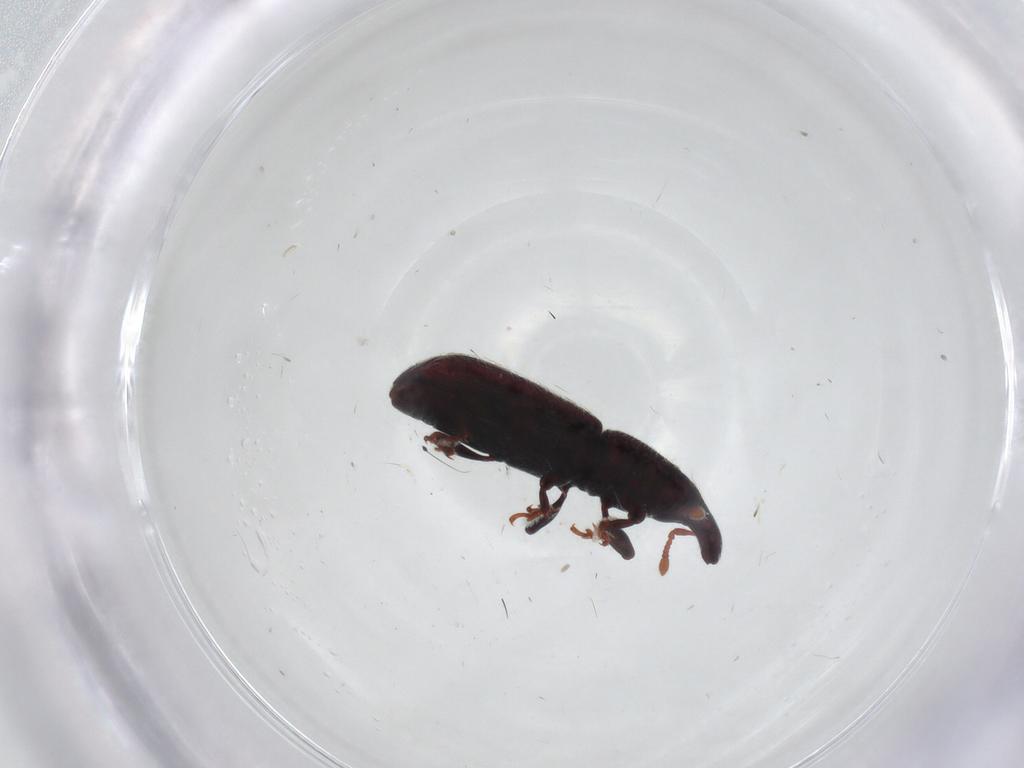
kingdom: Animalia
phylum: Arthropoda
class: Insecta
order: Coleoptera
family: Curculionidae
